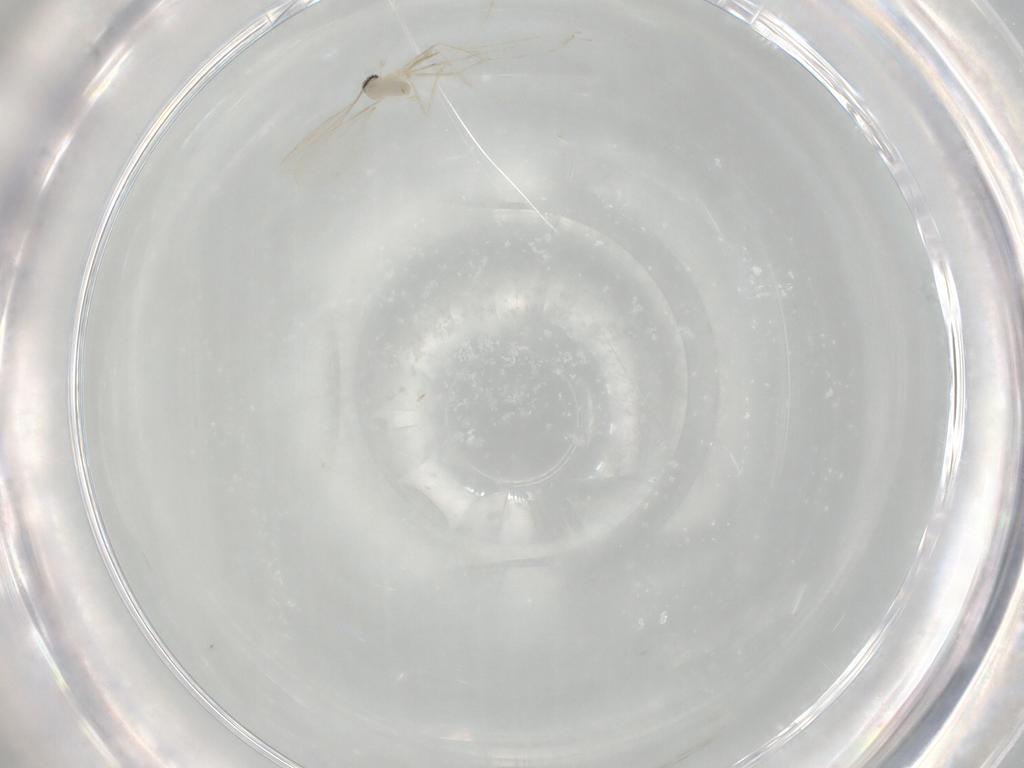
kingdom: Animalia
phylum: Arthropoda
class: Insecta
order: Diptera
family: Cecidomyiidae
